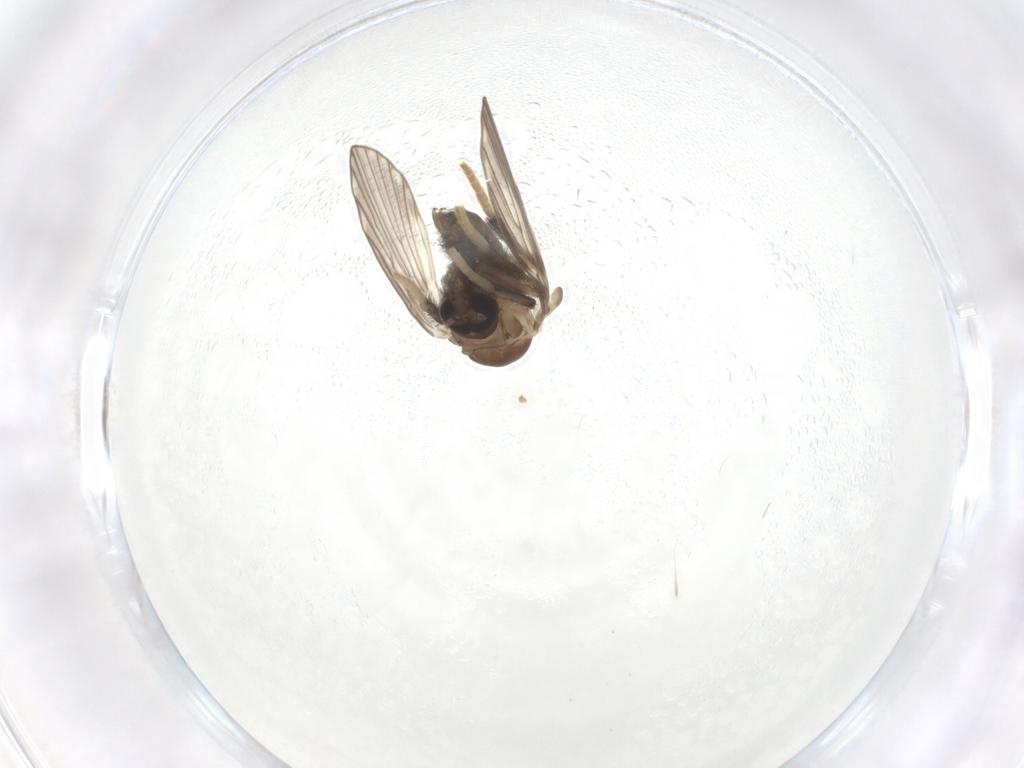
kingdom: Animalia
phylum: Arthropoda
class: Insecta
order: Diptera
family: Psychodidae
